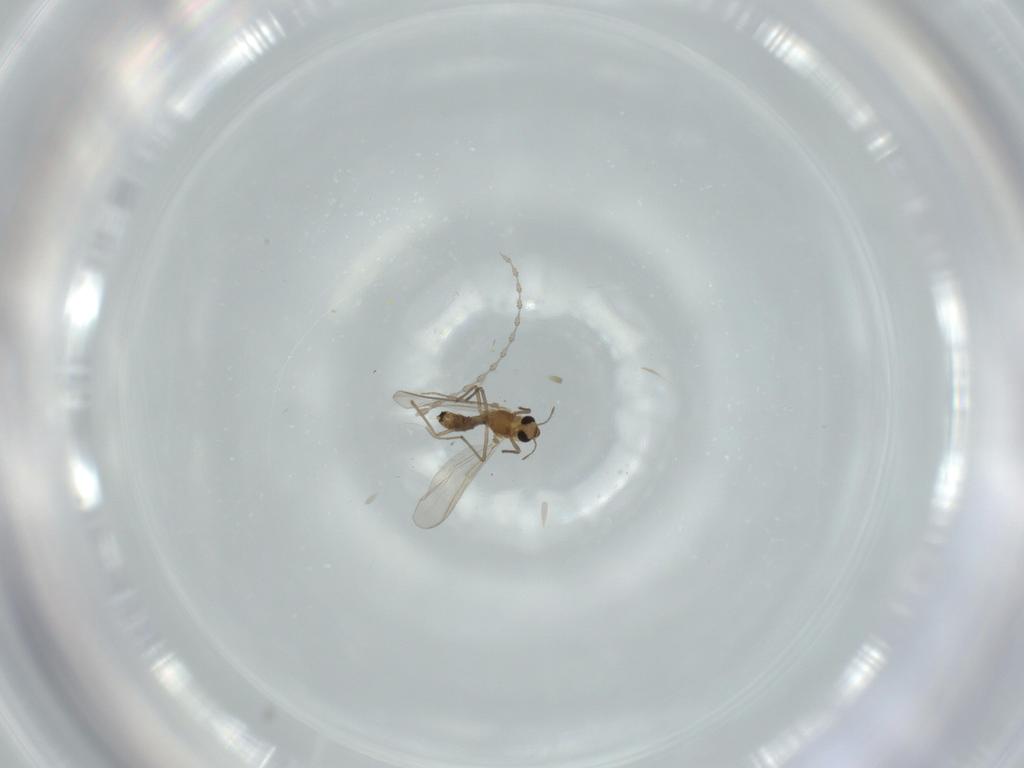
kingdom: Animalia
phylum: Arthropoda
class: Insecta
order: Diptera
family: Chironomidae
